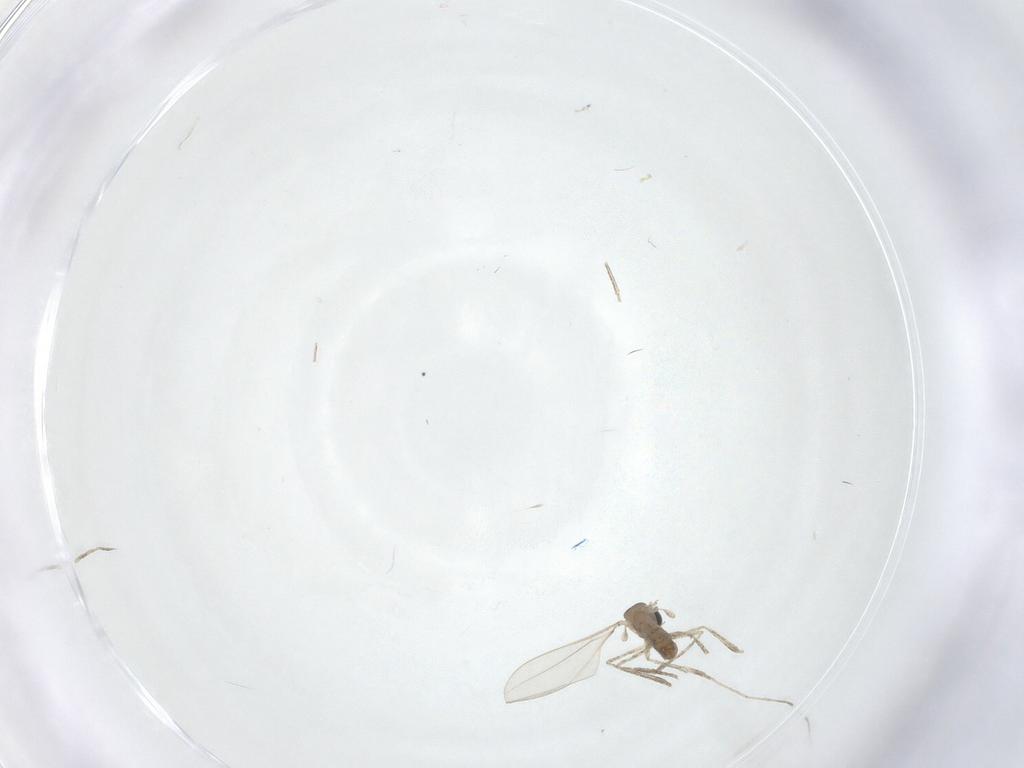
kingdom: Animalia
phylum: Arthropoda
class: Insecta
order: Diptera
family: Cecidomyiidae
